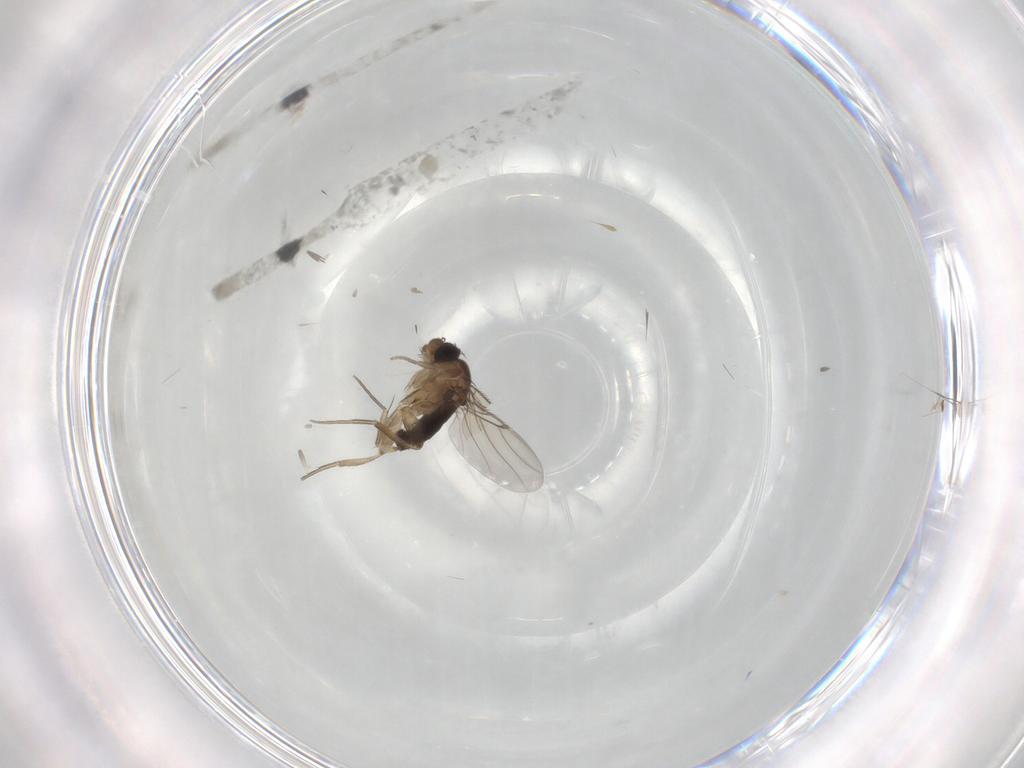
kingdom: Animalia
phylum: Arthropoda
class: Insecta
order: Diptera
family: Phoridae
